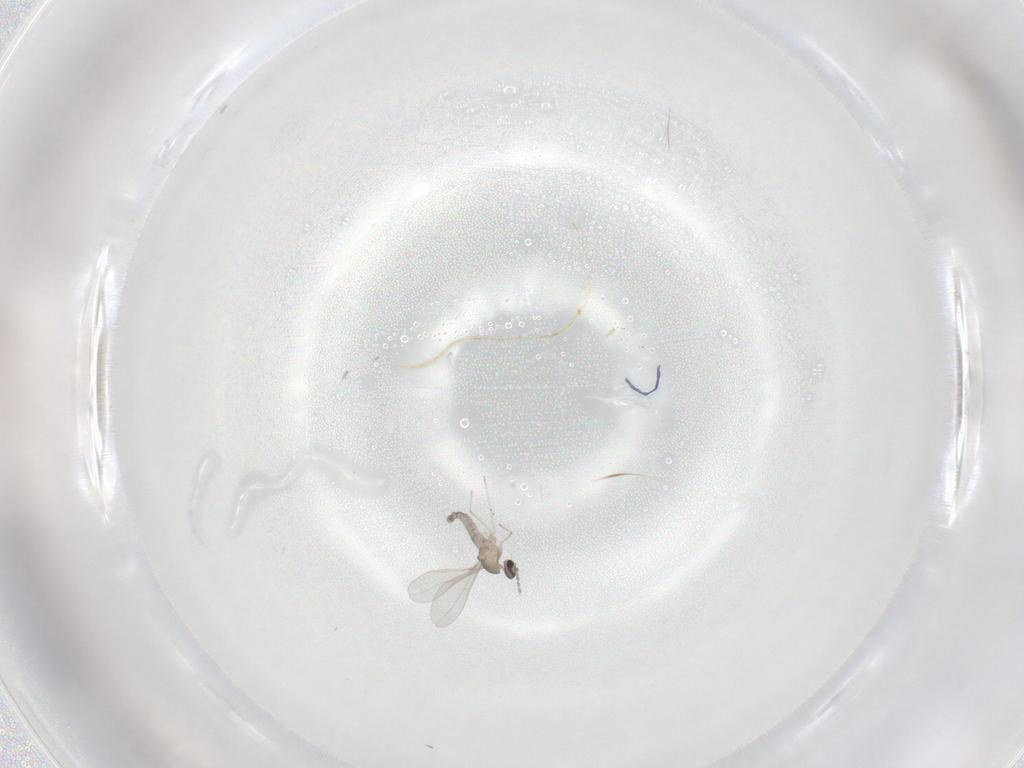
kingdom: Animalia
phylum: Arthropoda
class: Insecta
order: Diptera
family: Cecidomyiidae
